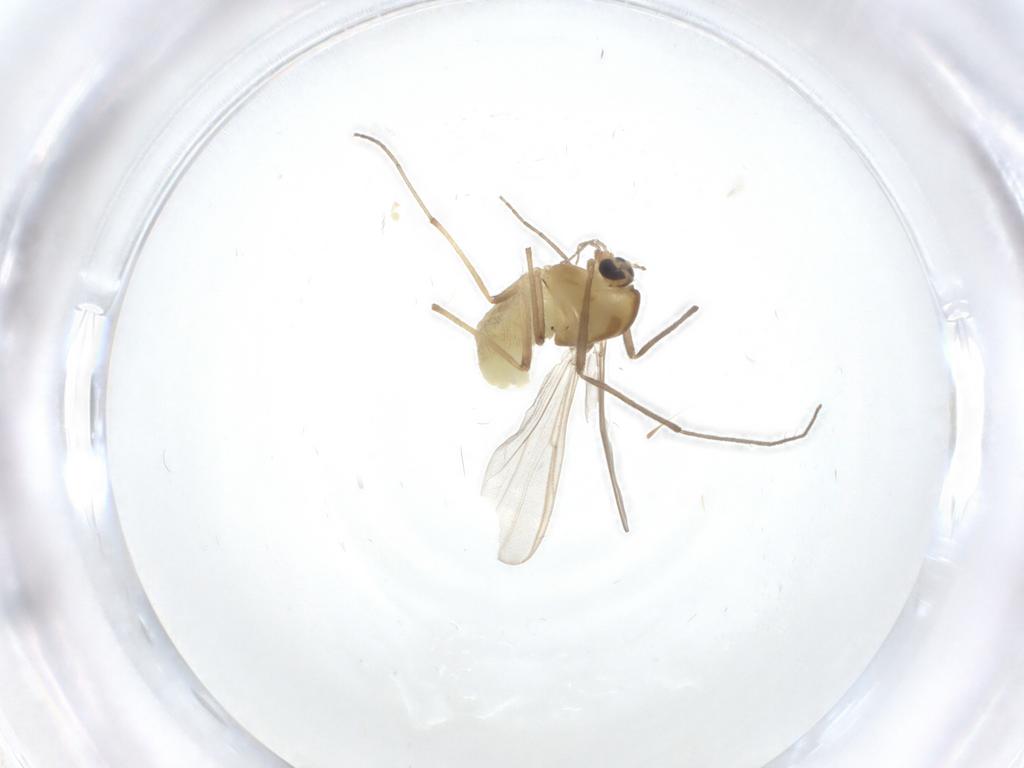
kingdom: Animalia
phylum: Arthropoda
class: Insecta
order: Diptera
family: Chironomidae
